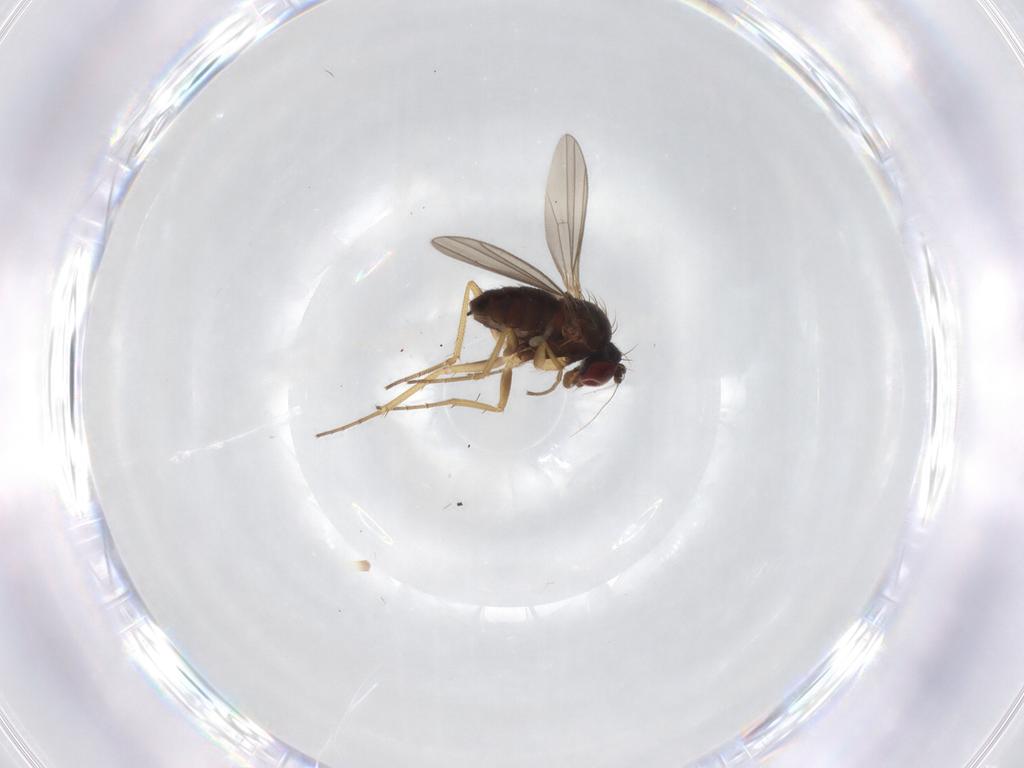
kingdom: Animalia
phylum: Arthropoda
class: Insecta
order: Diptera
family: Dolichopodidae
